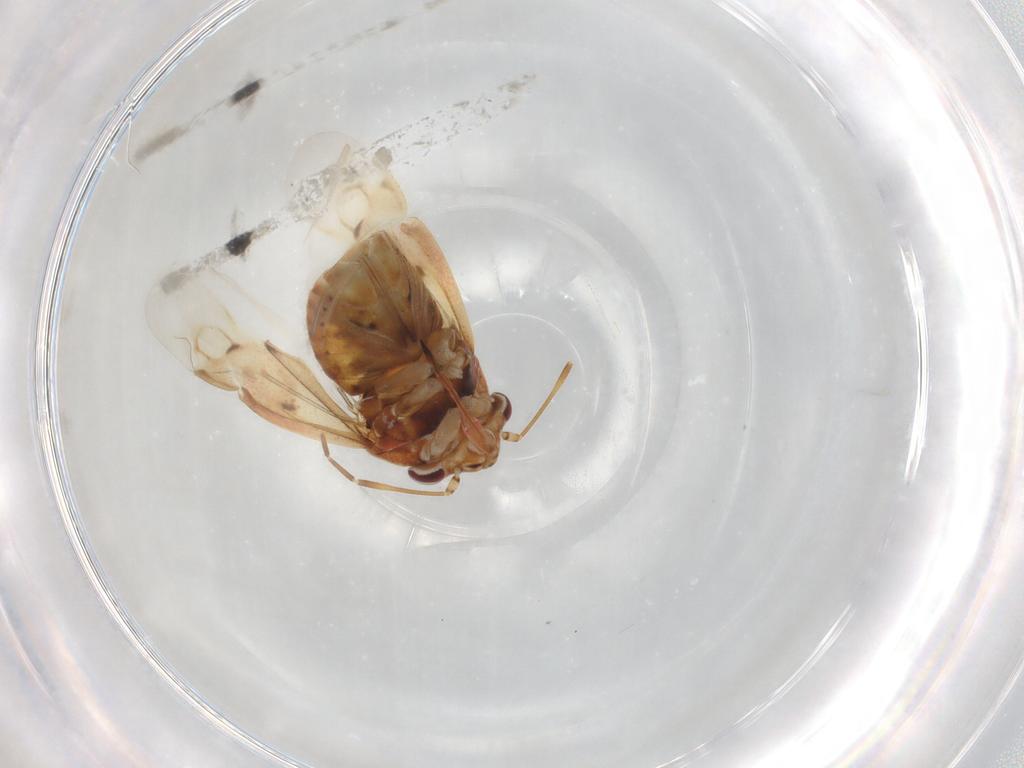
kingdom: Animalia
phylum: Arthropoda
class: Insecta
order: Hemiptera
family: Miridae
